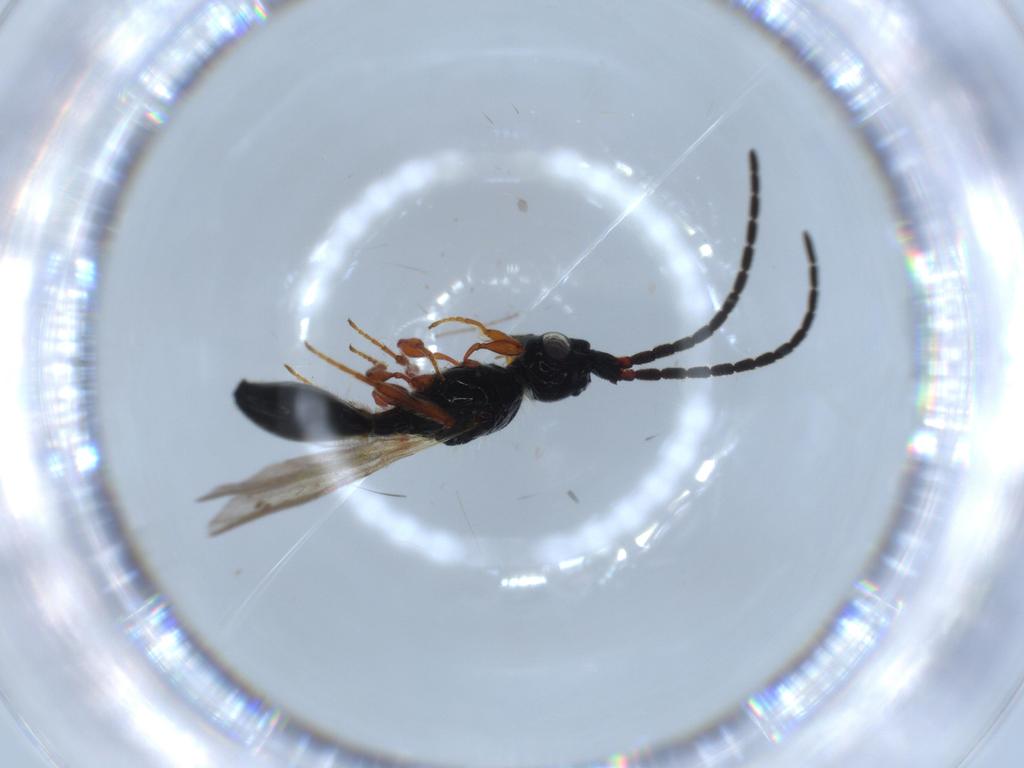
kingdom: Animalia
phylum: Arthropoda
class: Insecta
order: Hymenoptera
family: Diapriidae
